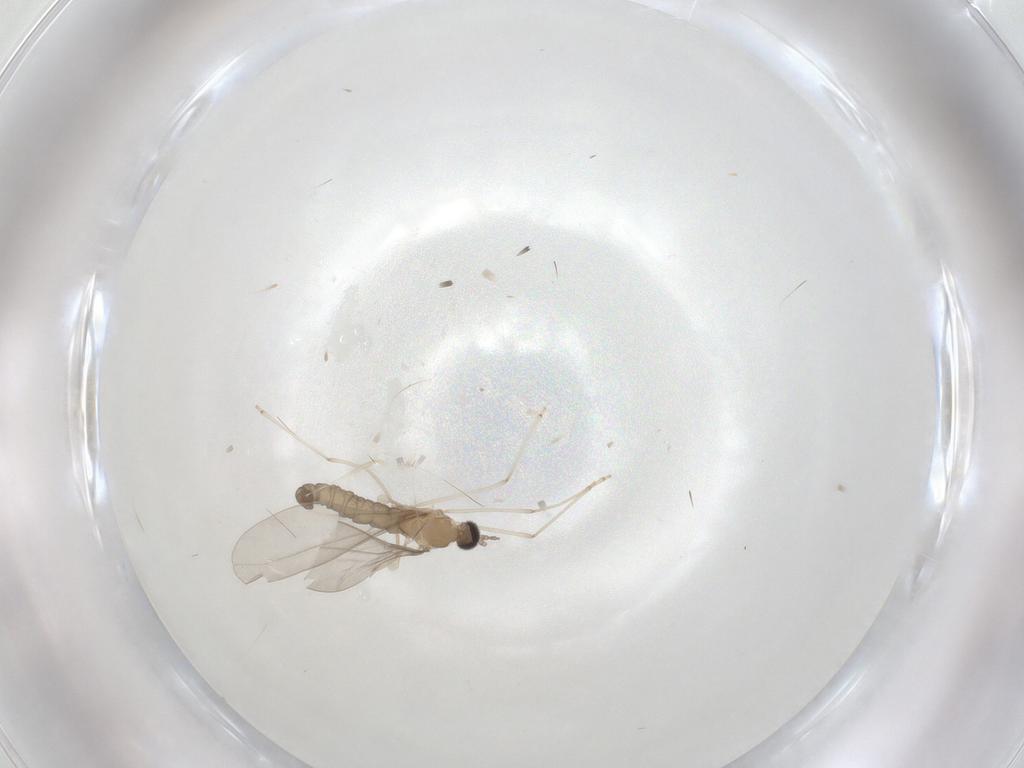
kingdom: Animalia
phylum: Arthropoda
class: Insecta
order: Diptera
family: Cecidomyiidae
